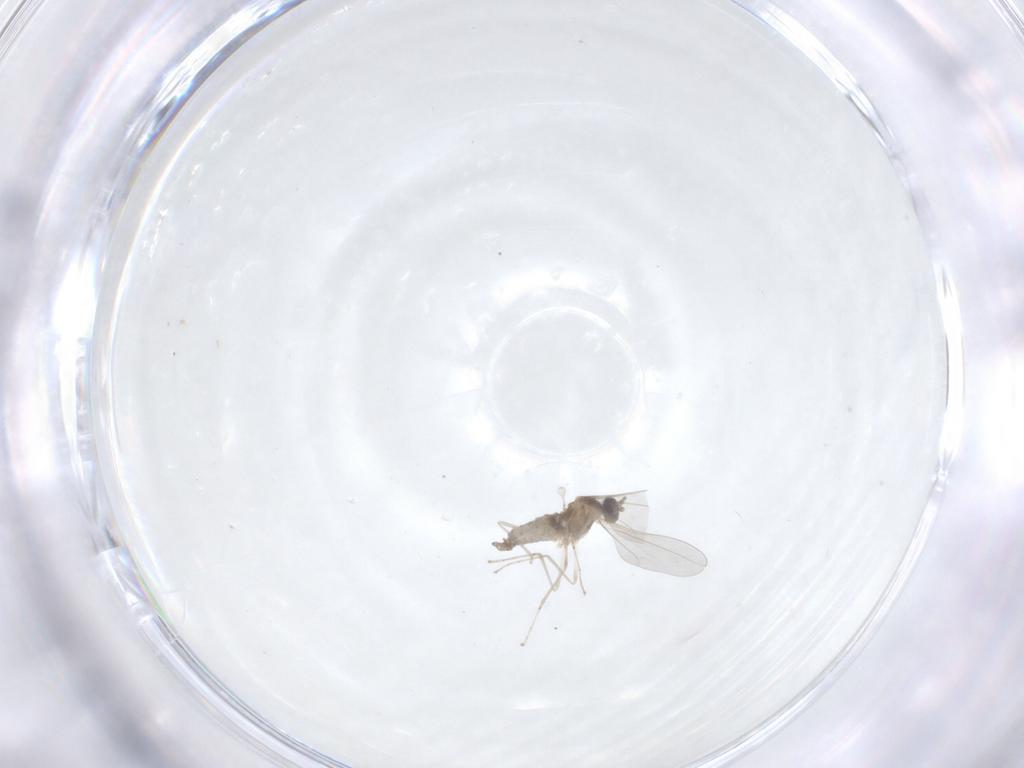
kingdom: Animalia
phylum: Arthropoda
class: Insecta
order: Diptera
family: Cecidomyiidae
